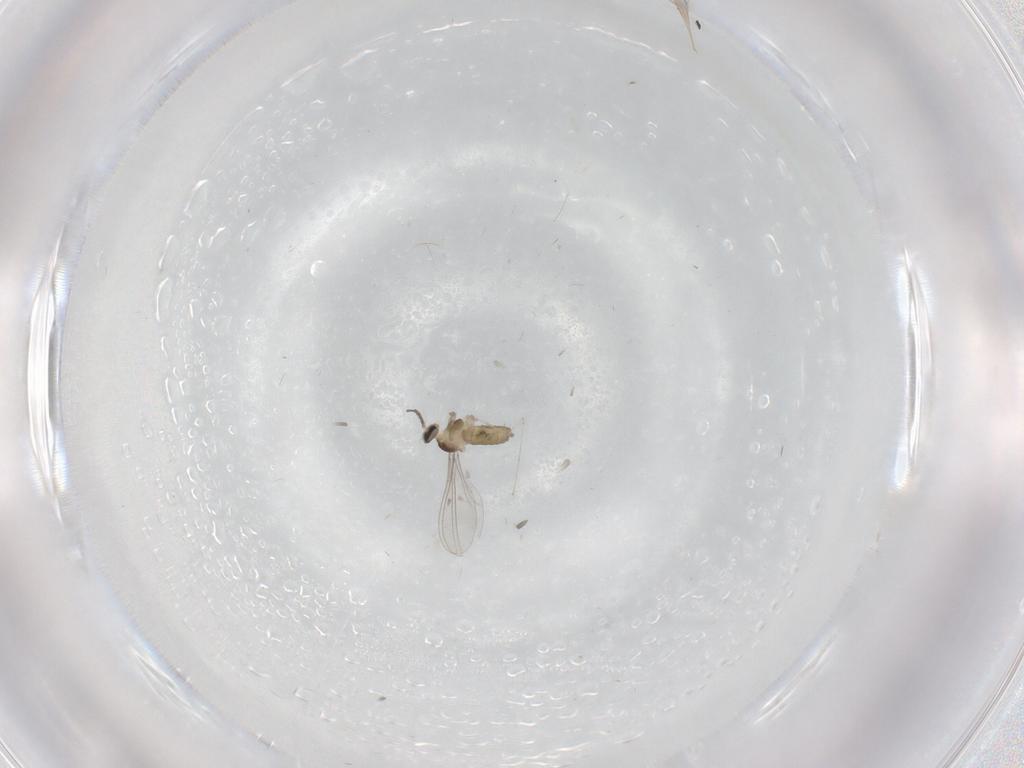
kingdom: Animalia
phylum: Arthropoda
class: Insecta
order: Diptera
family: Cecidomyiidae
